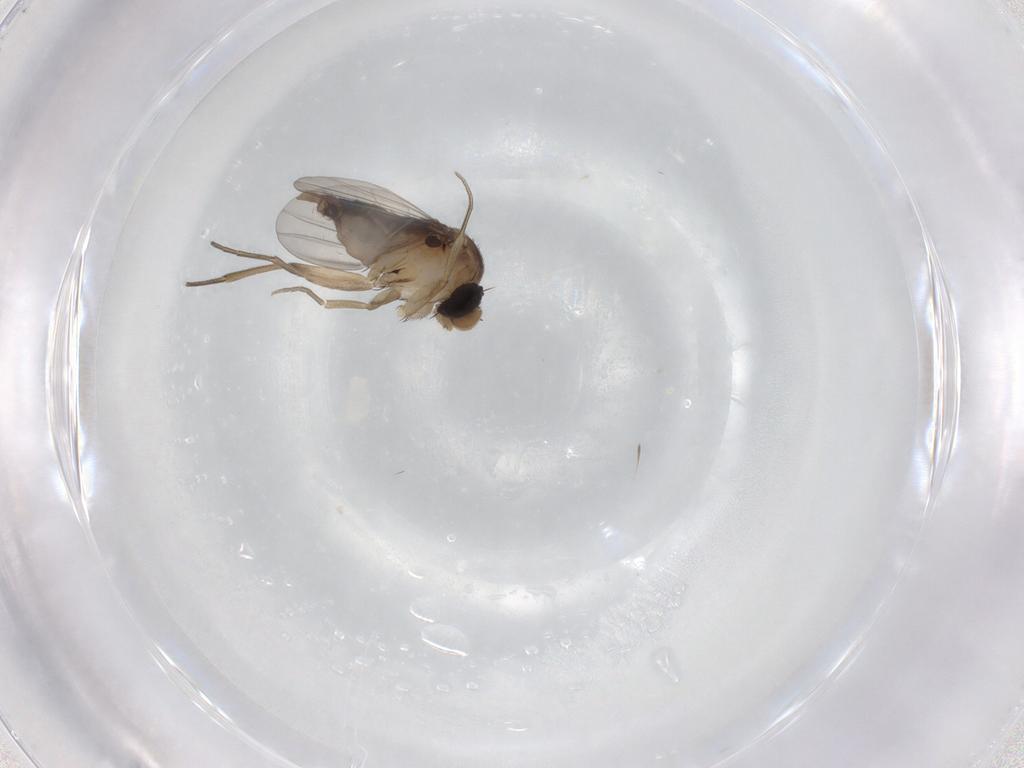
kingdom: Animalia
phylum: Arthropoda
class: Insecta
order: Diptera
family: Phoridae
